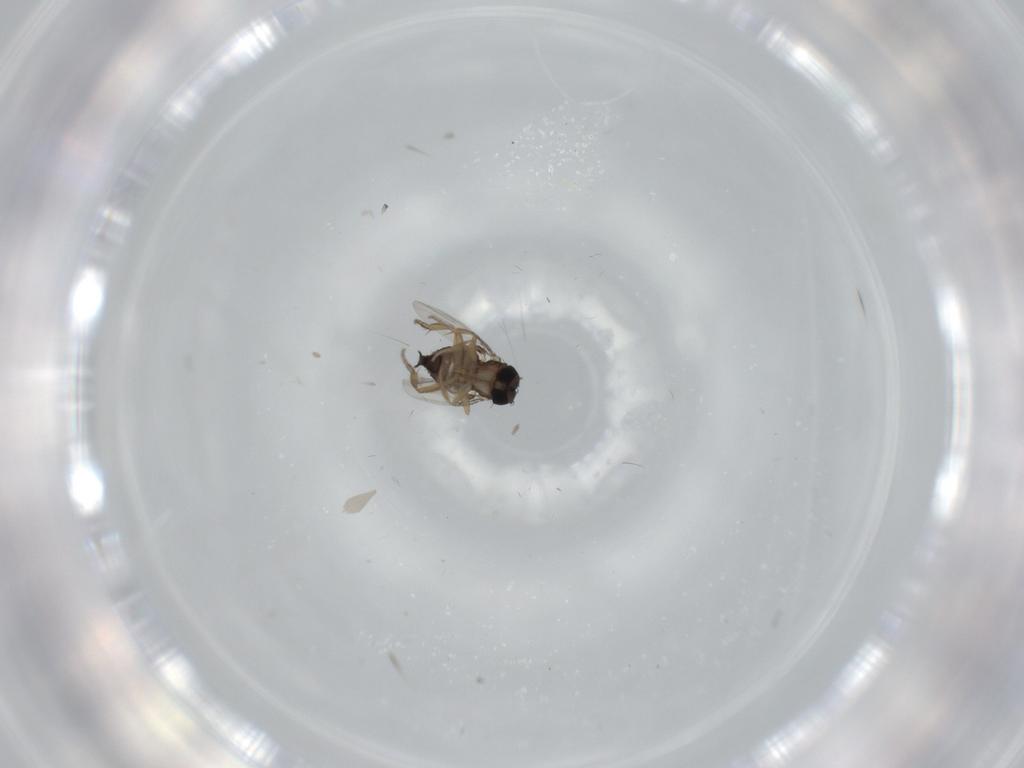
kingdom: Animalia
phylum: Arthropoda
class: Insecta
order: Diptera
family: Phoridae
